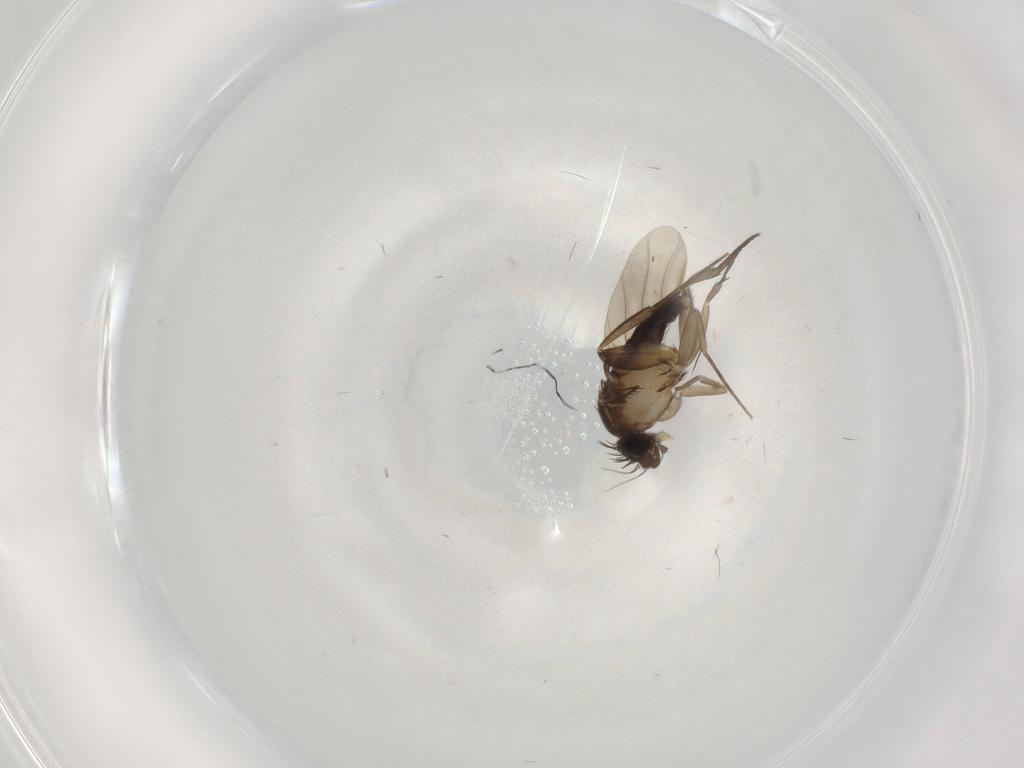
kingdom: Animalia
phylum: Arthropoda
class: Insecta
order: Diptera
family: Phoridae
